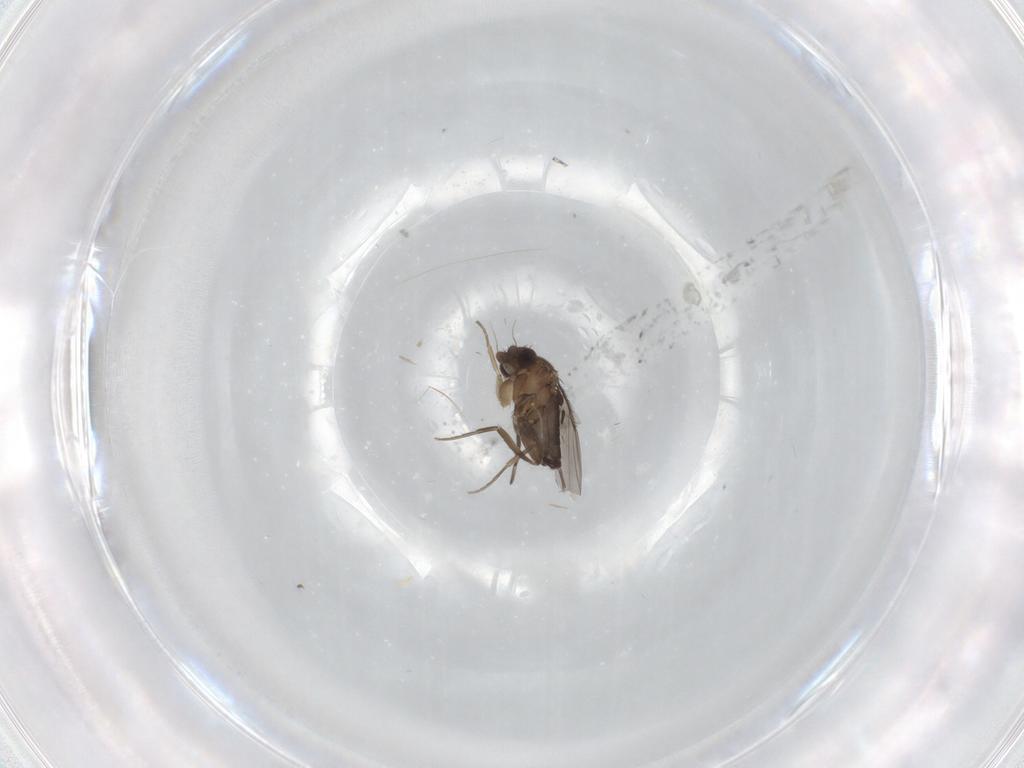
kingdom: Animalia
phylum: Arthropoda
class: Insecta
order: Diptera
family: Phoridae
